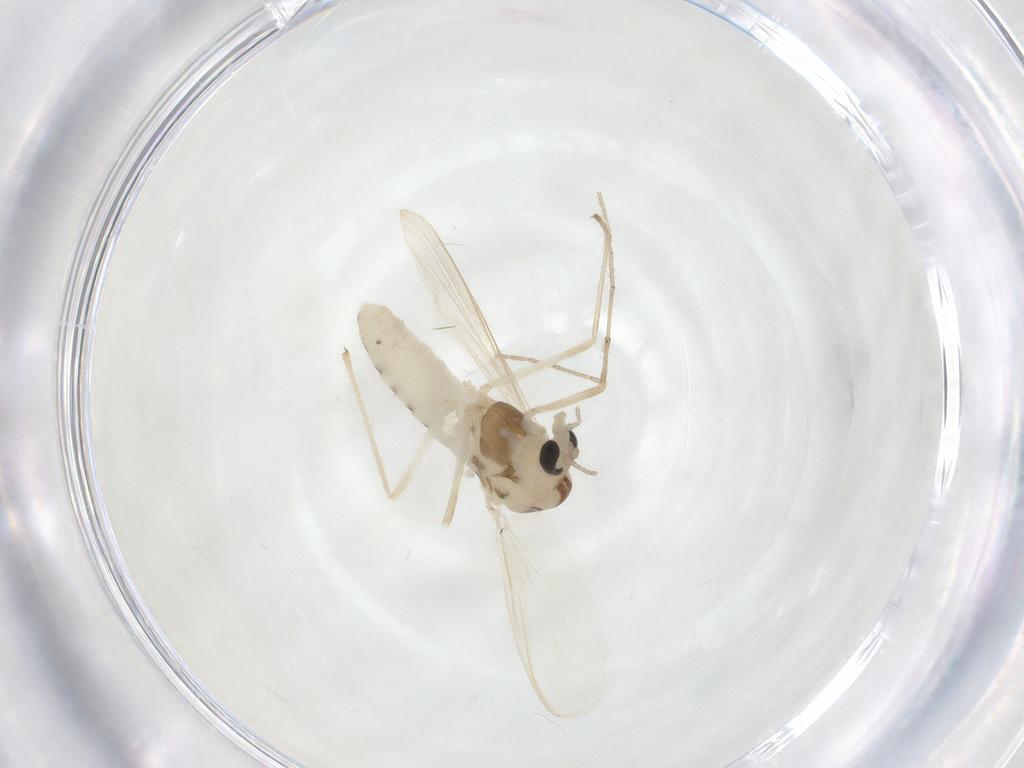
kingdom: Animalia
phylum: Arthropoda
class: Insecta
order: Diptera
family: Chironomidae
